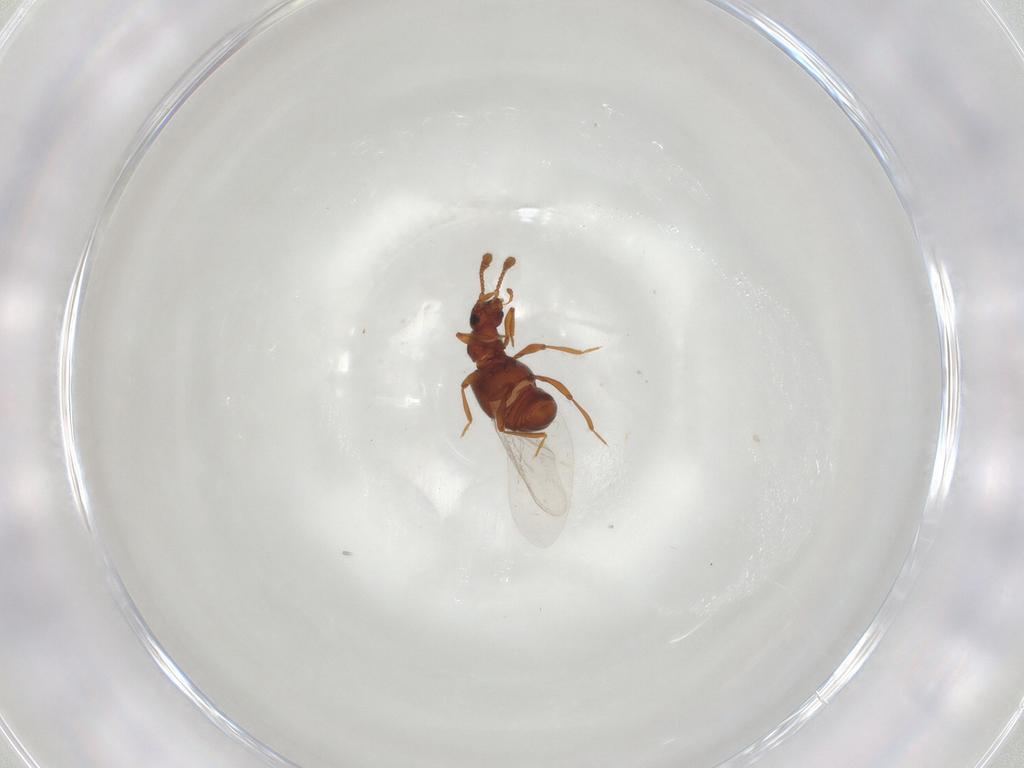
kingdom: Animalia
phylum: Arthropoda
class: Insecta
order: Coleoptera
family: Staphylinidae
